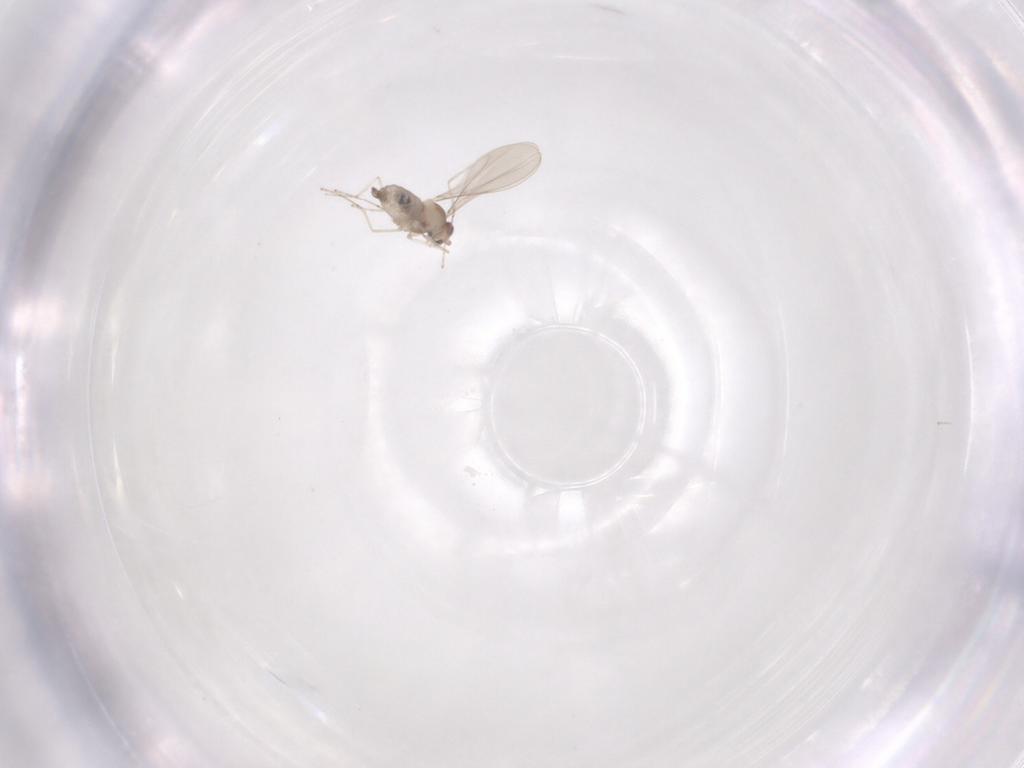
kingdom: Animalia
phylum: Arthropoda
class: Insecta
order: Diptera
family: Cecidomyiidae
